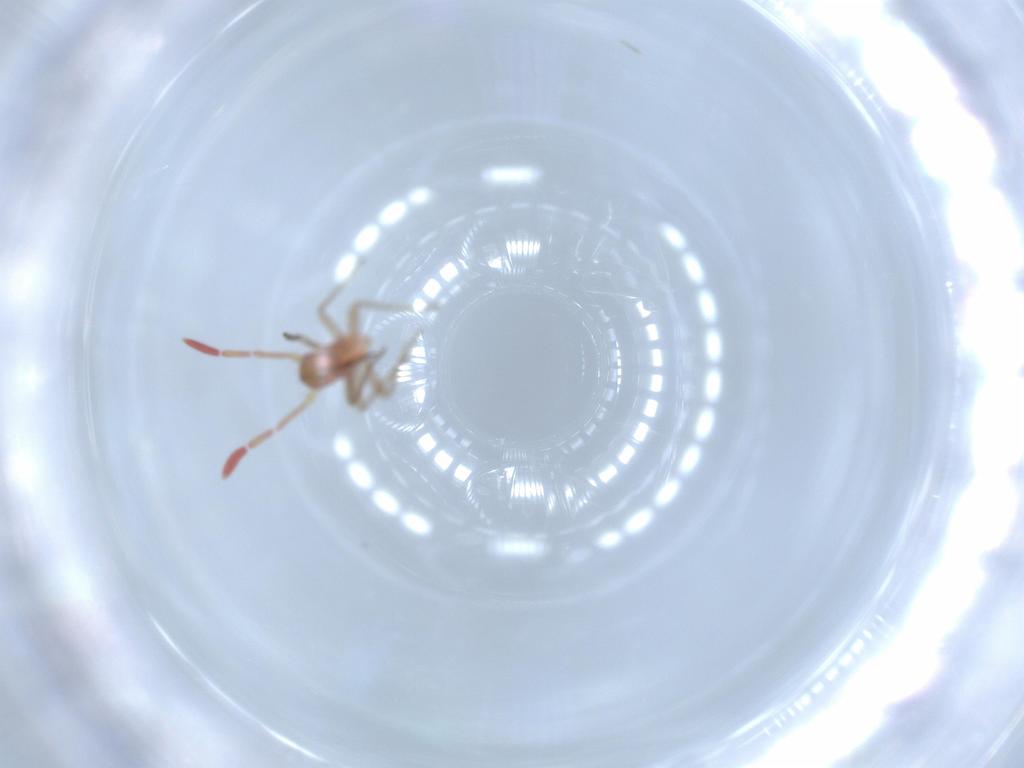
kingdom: Animalia
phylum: Arthropoda
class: Insecta
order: Hemiptera
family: Miridae
